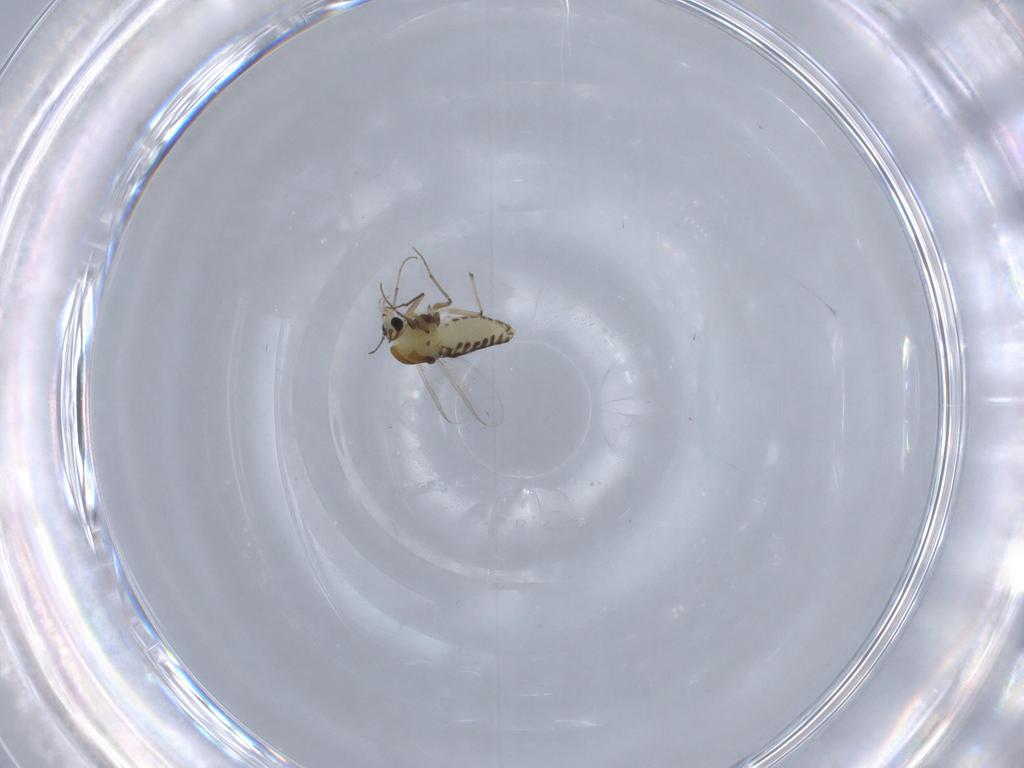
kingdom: Animalia
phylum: Arthropoda
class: Insecta
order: Diptera
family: Chironomidae
